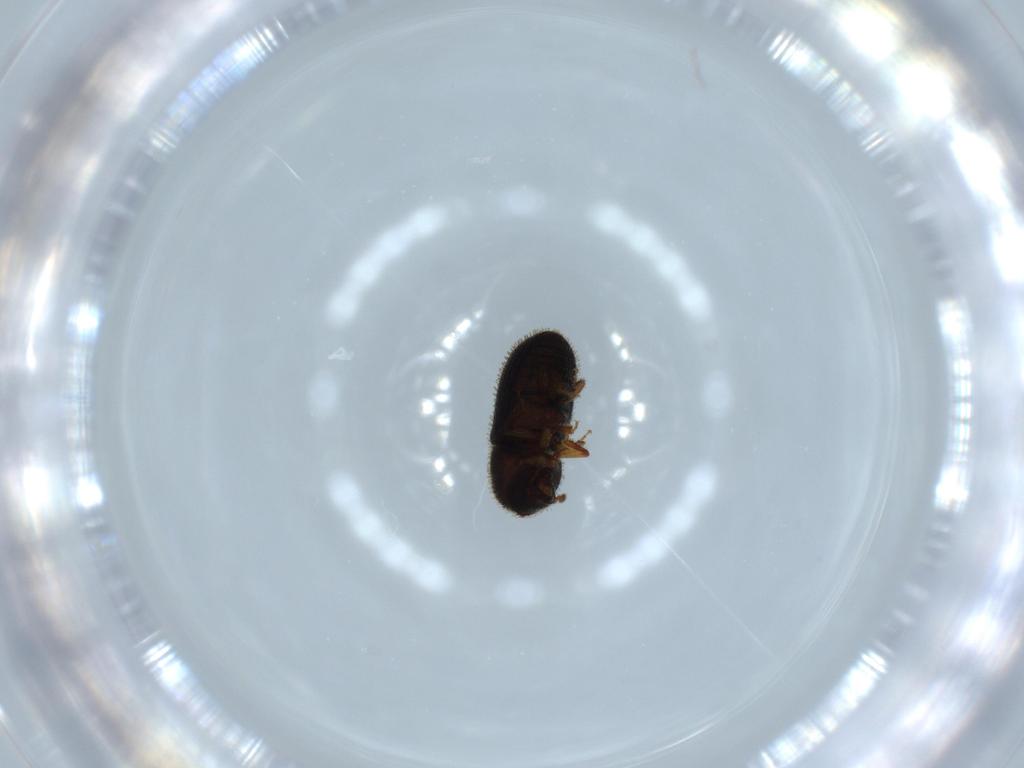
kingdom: Animalia
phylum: Arthropoda
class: Insecta
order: Coleoptera
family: Curculionidae
